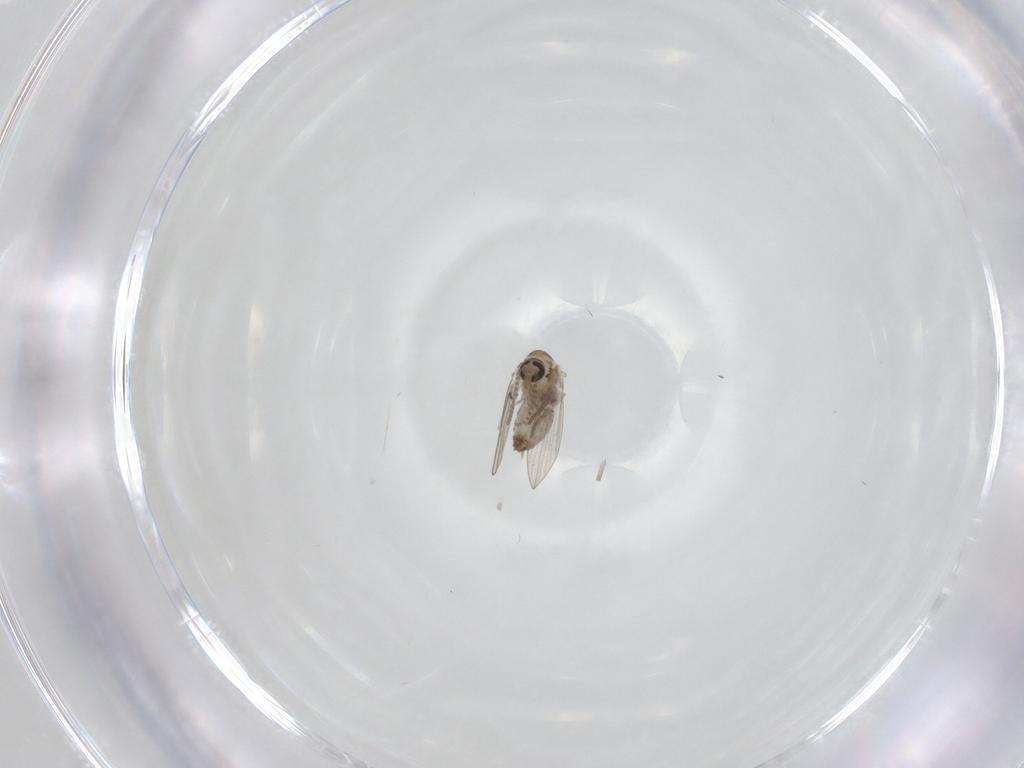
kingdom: Animalia
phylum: Arthropoda
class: Insecta
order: Diptera
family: Psychodidae
